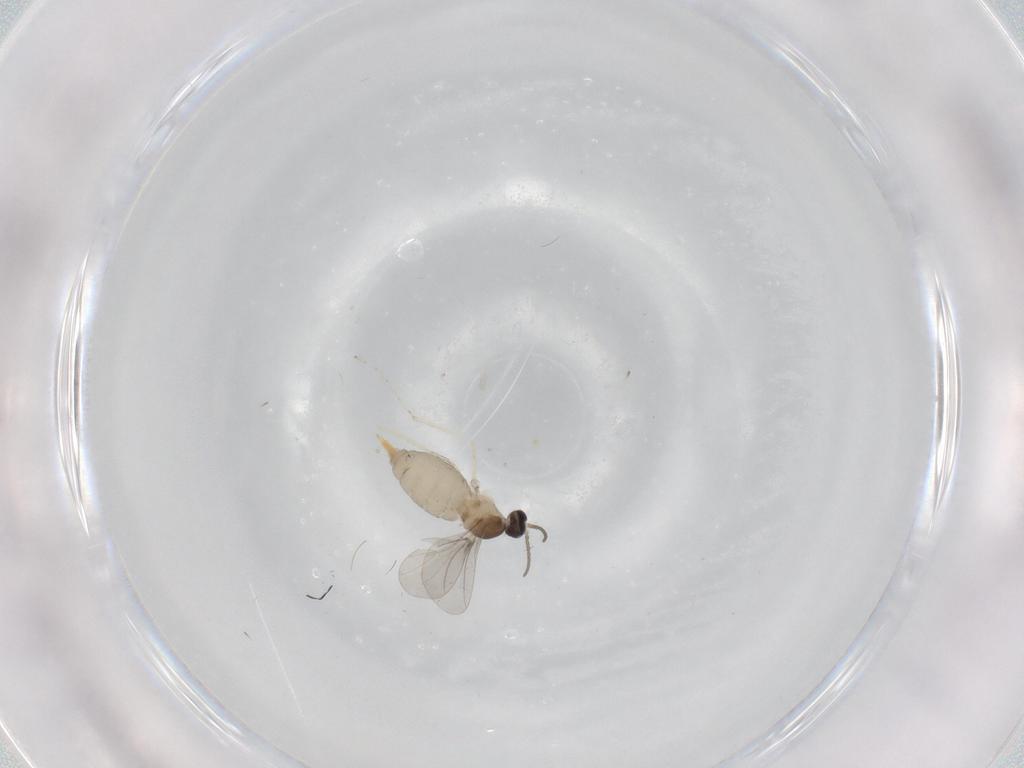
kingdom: Animalia
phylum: Arthropoda
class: Insecta
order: Diptera
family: Cecidomyiidae
